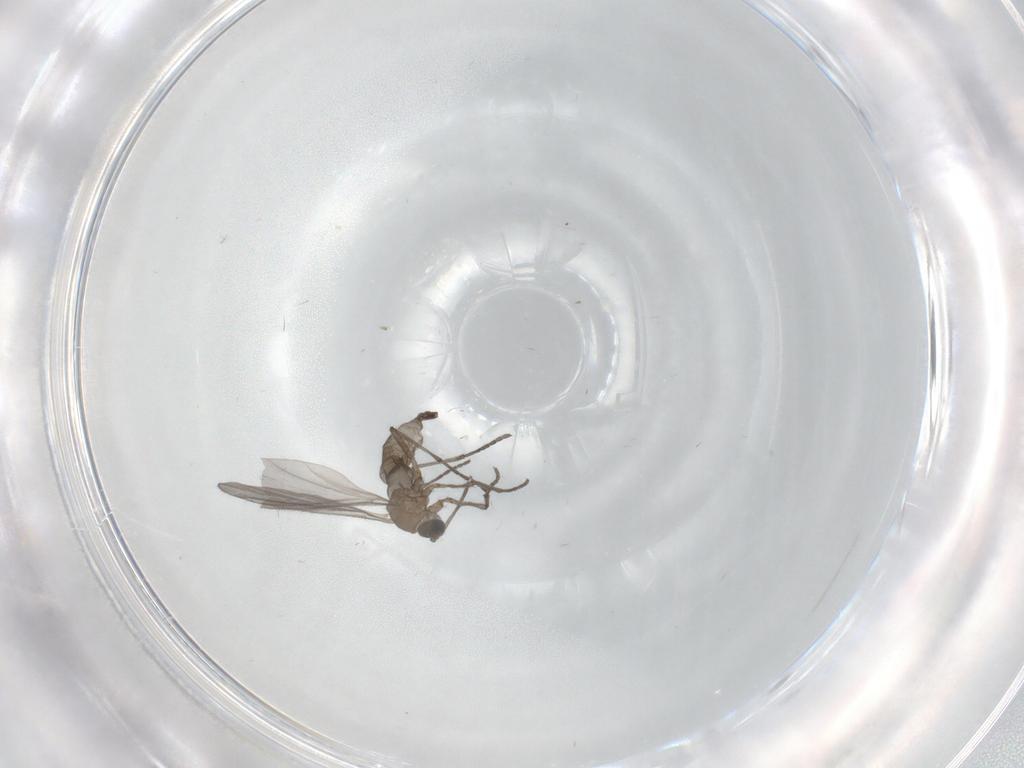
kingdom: Animalia
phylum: Arthropoda
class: Insecta
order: Diptera
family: Sciaridae
